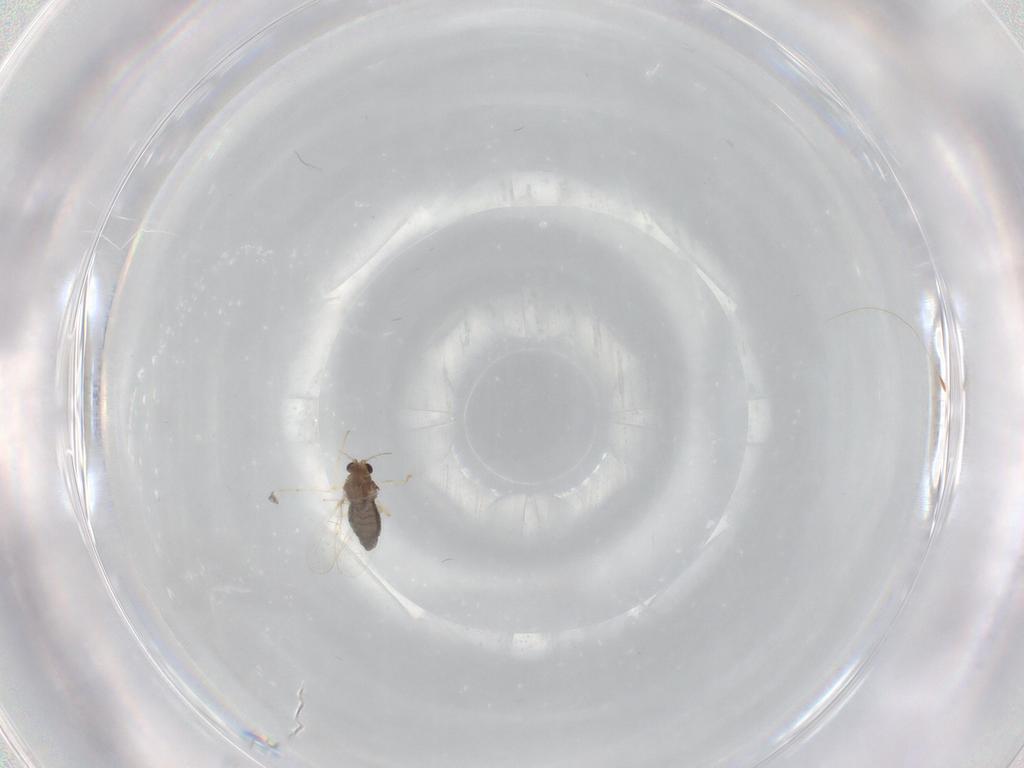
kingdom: Animalia
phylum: Arthropoda
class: Insecta
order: Diptera
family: Chironomidae
